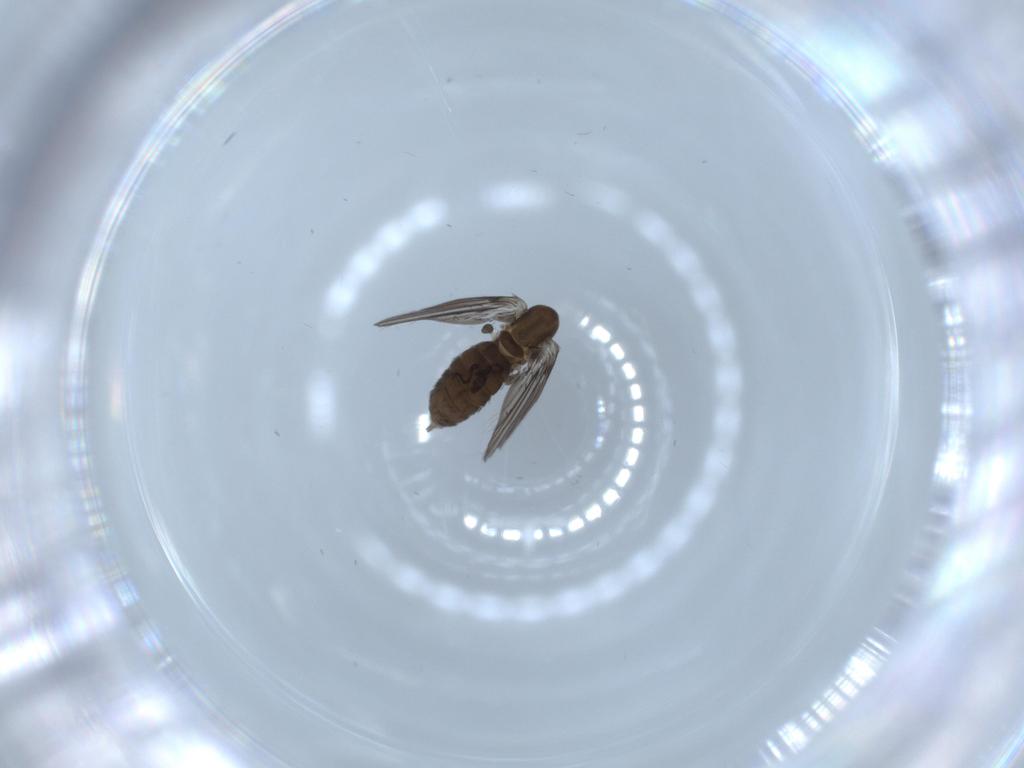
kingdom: Animalia
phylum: Arthropoda
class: Insecta
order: Diptera
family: Psychodidae
